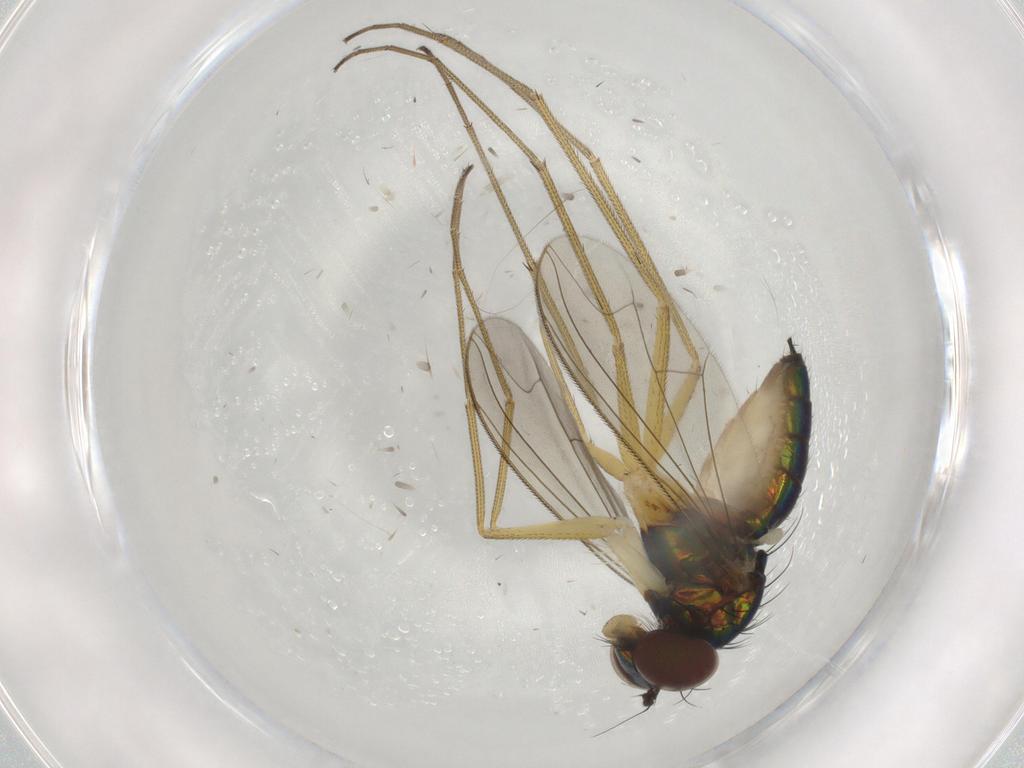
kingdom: Animalia
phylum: Arthropoda
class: Insecta
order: Diptera
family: Dolichopodidae
